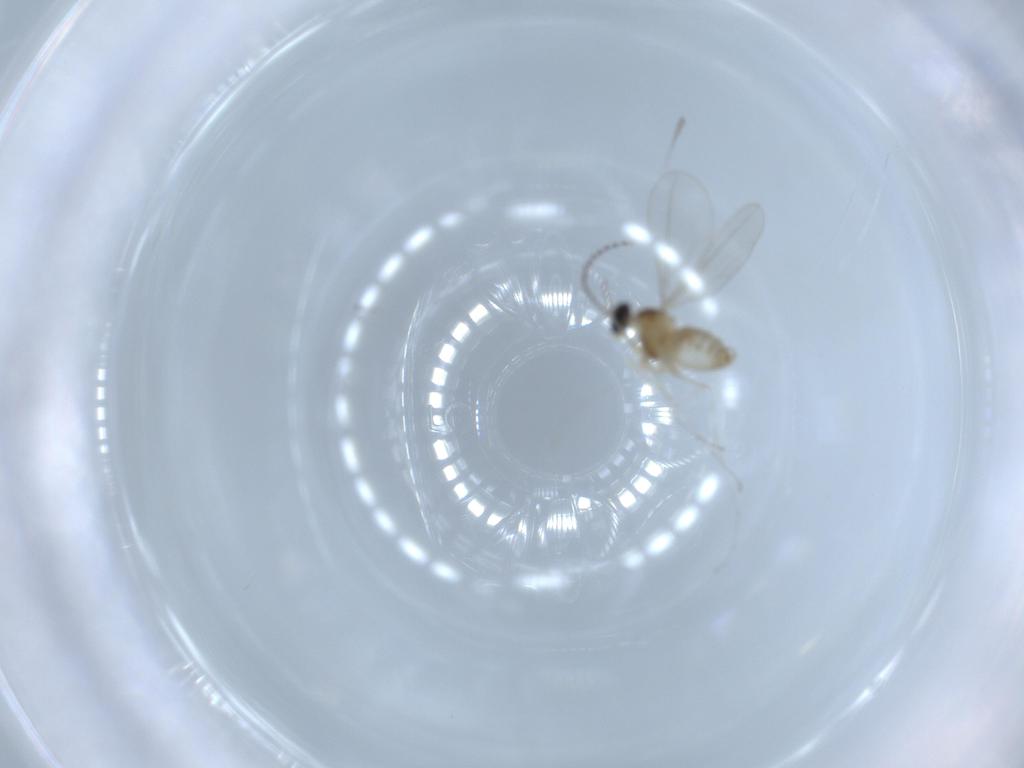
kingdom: Animalia
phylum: Arthropoda
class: Insecta
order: Diptera
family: Cecidomyiidae
